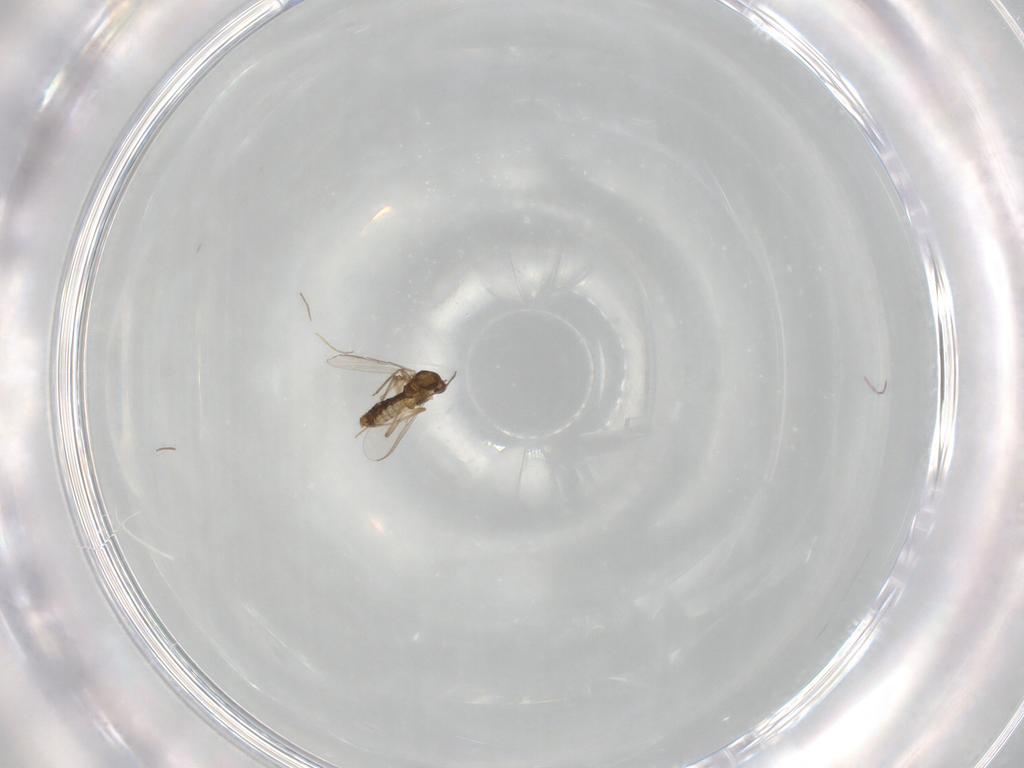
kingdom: Animalia
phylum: Arthropoda
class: Insecta
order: Diptera
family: Chironomidae
